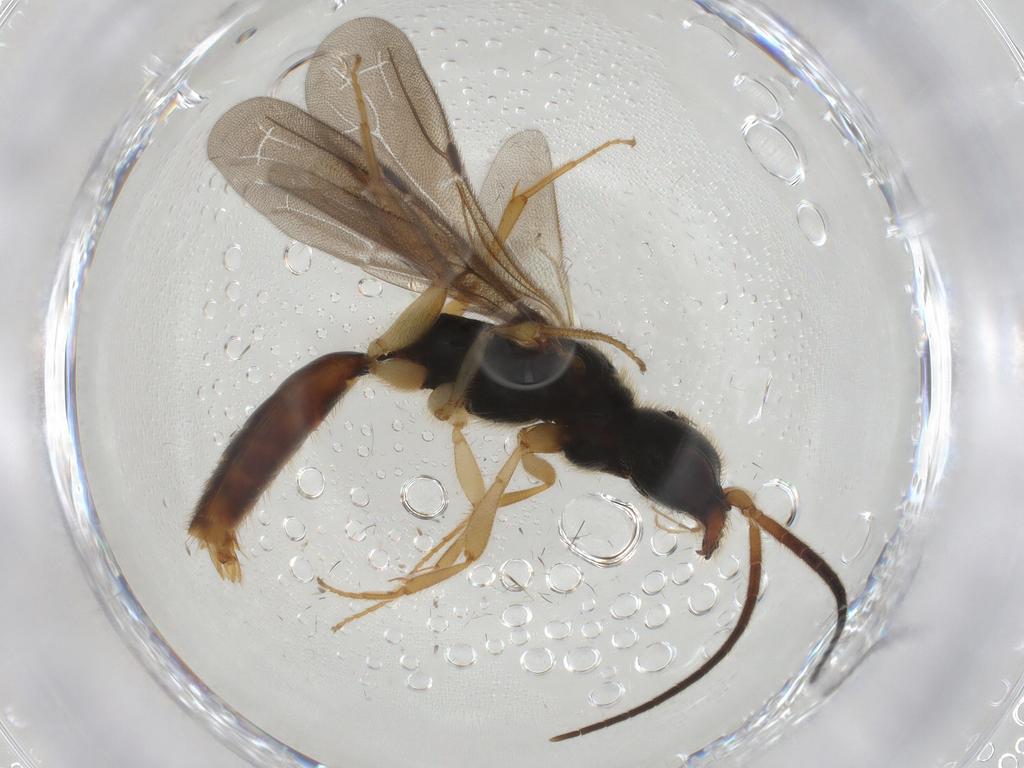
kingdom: Animalia
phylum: Arthropoda
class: Insecta
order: Hymenoptera
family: Bethylidae
